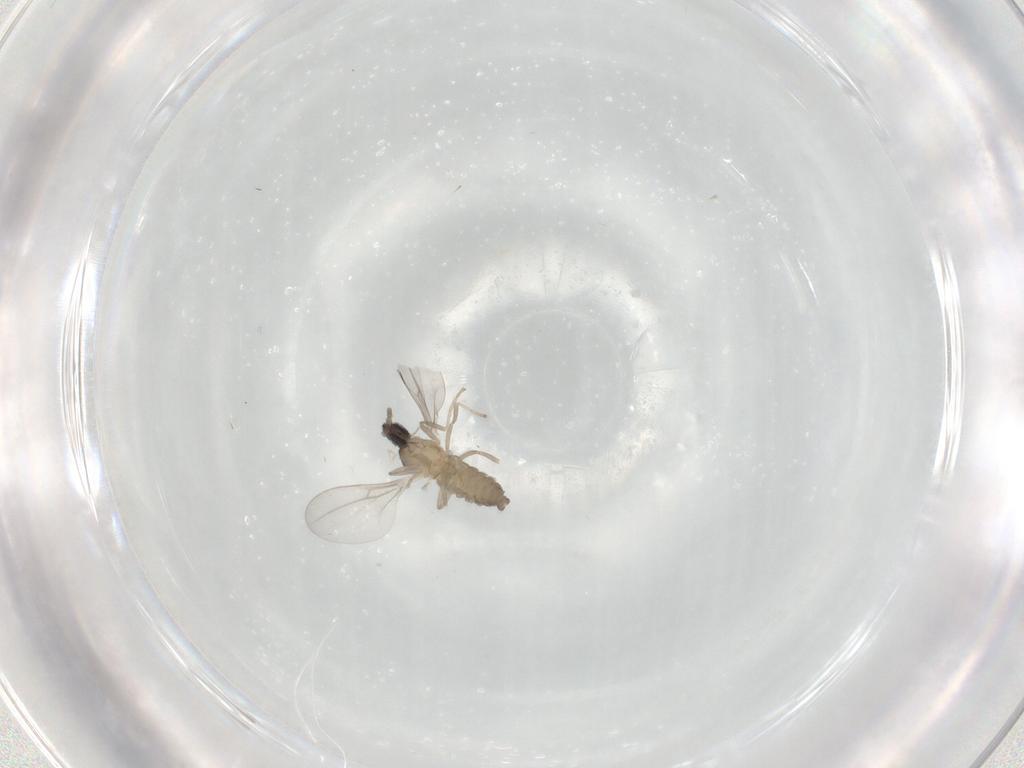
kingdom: Animalia
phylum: Arthropoda
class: Insecta
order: Diptera
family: Cecidomyiidae
